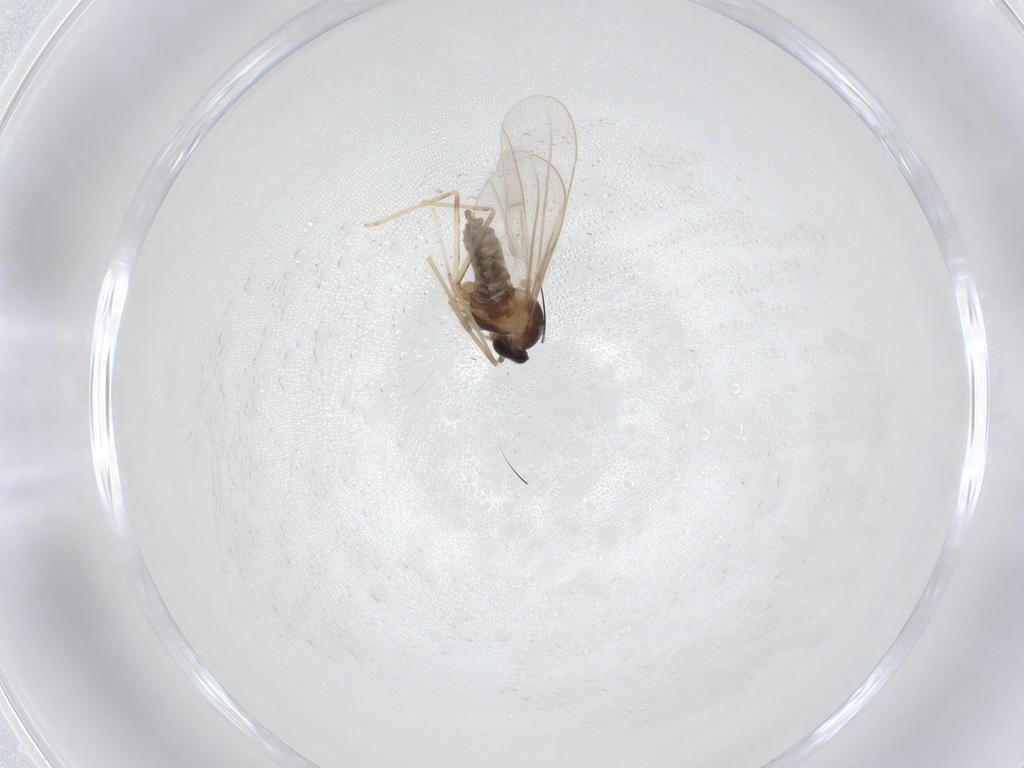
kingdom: Animalia
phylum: Arthropoda
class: Insecta
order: Diptera
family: Cecidomyiidae
